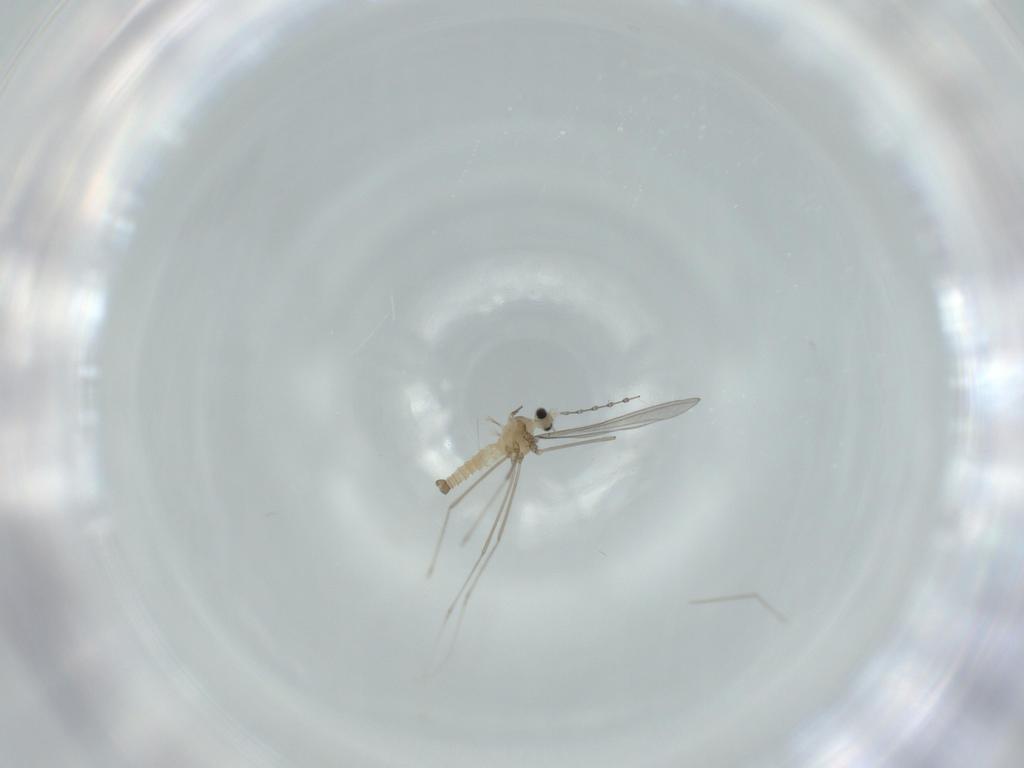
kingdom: Animalia
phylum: Arthropoda
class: Insecta
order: Diptera
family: Cecidomyiidae
